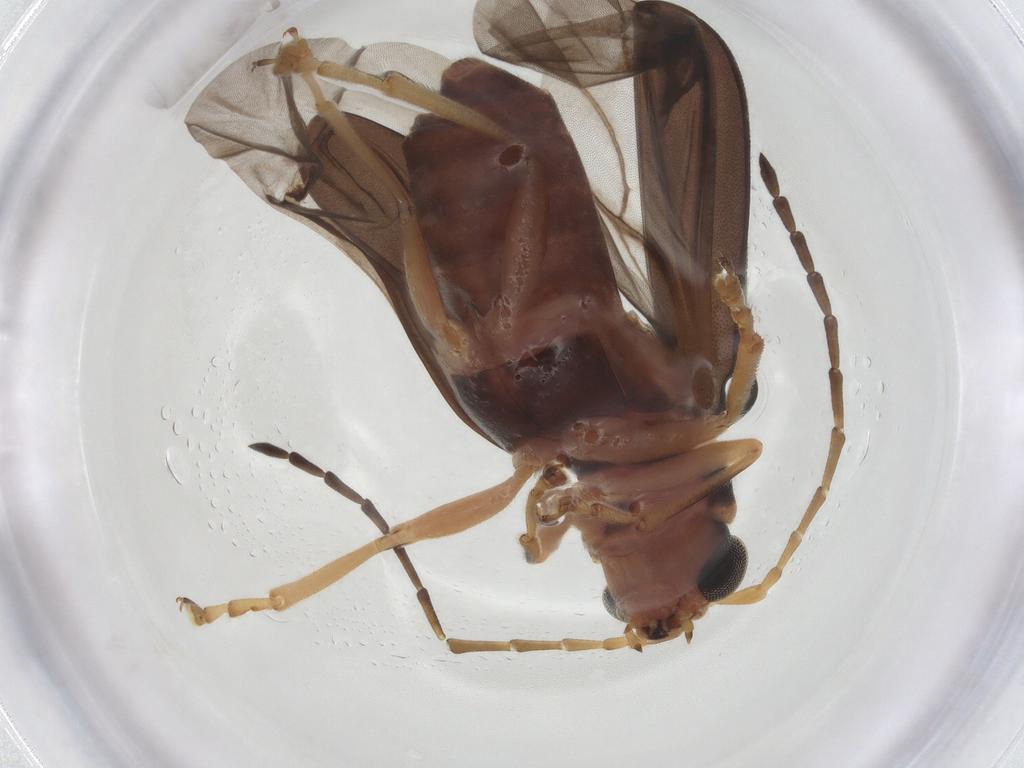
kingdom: Animalia
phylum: Arthropoda
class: Insecta
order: Coleoptera
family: Chrysomelidae
